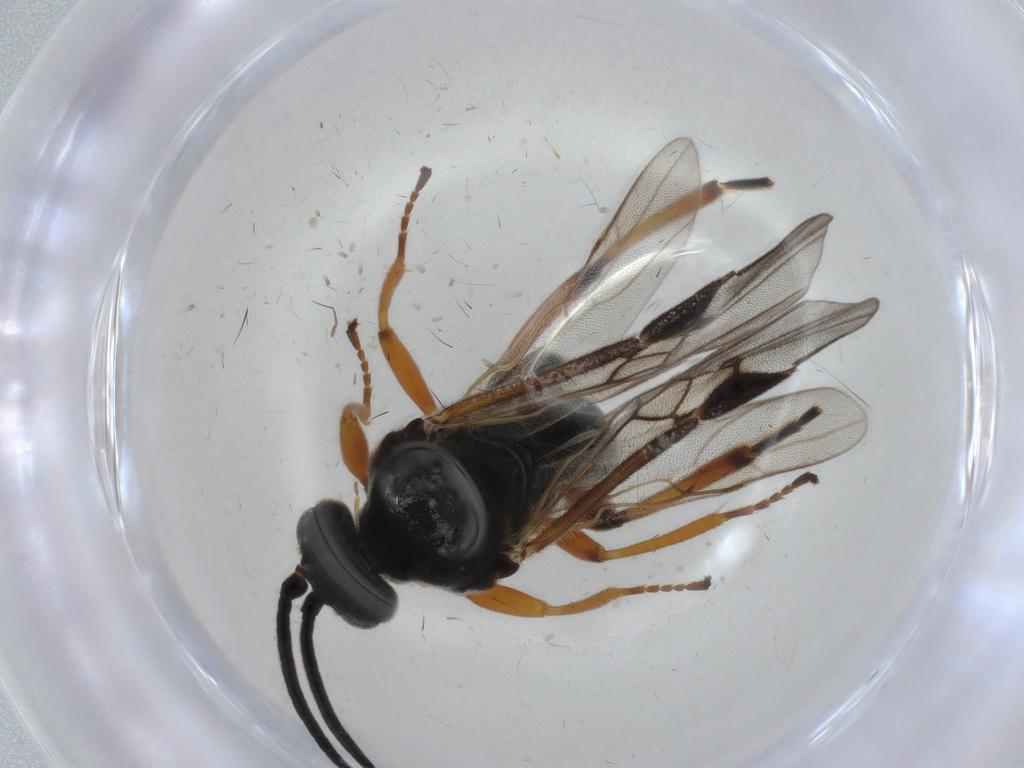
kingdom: Animalia
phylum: Arthropoda
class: Insecta
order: Hymenoptera
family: Braconidae
